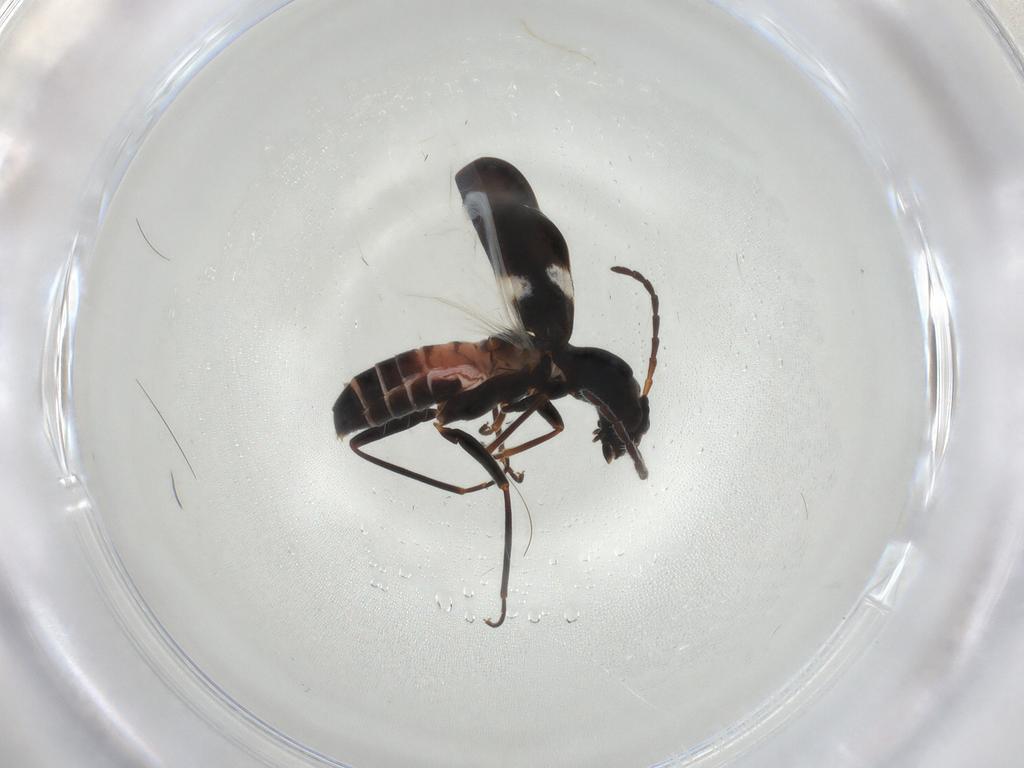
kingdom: Animalia
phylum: Arthropoda
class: Insecta
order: Coleoptera
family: Melyridae
